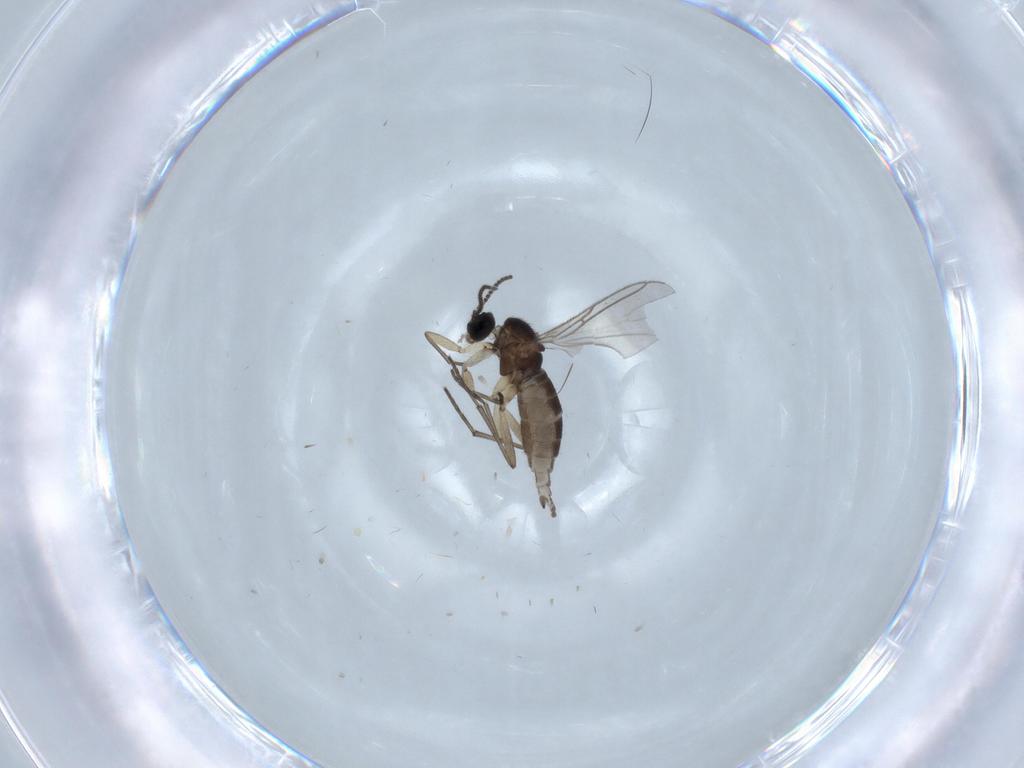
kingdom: Animalia
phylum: Arthropoda
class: Insecta
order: Diptera
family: Sciaridae
